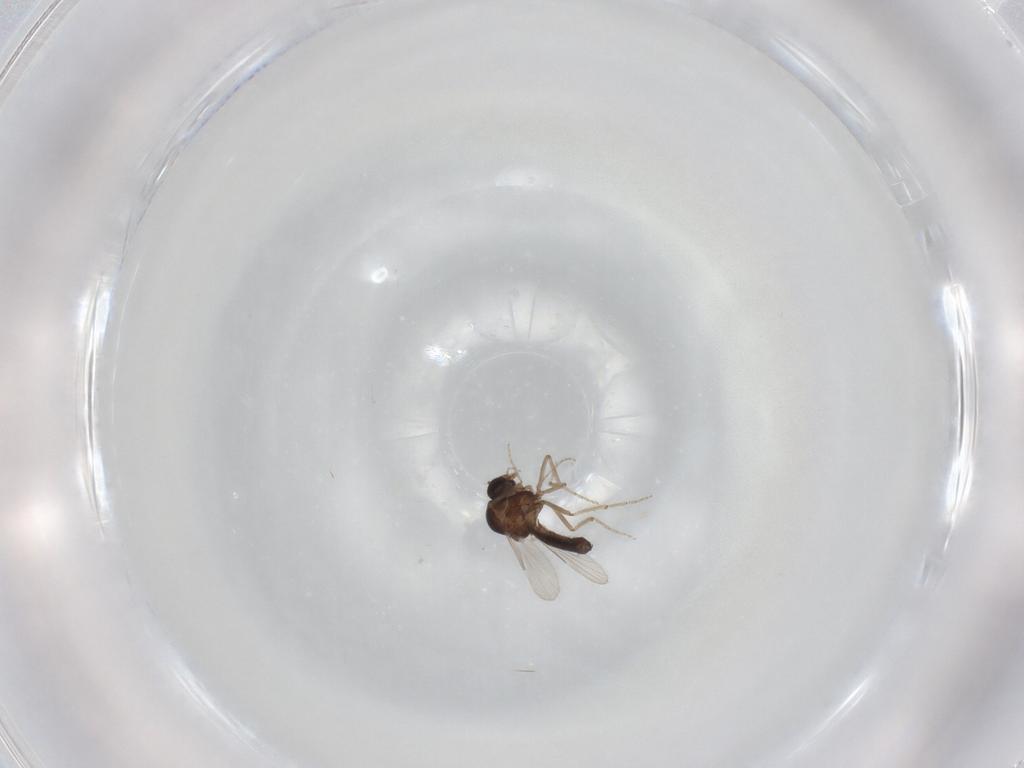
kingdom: Animalia
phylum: Arthropoda
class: Insecta
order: Diptera
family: Ceratopogonidae
